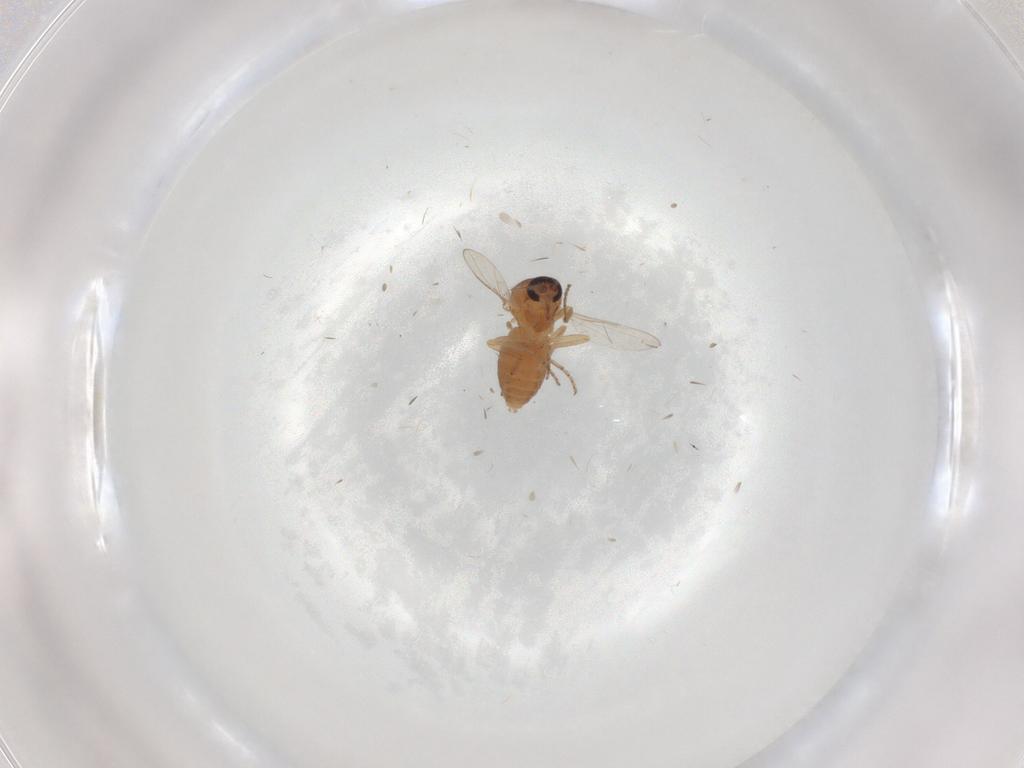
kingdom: Animalia
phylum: Arthropoda
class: Insecta
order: Diptera
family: Ceratopogonidae
